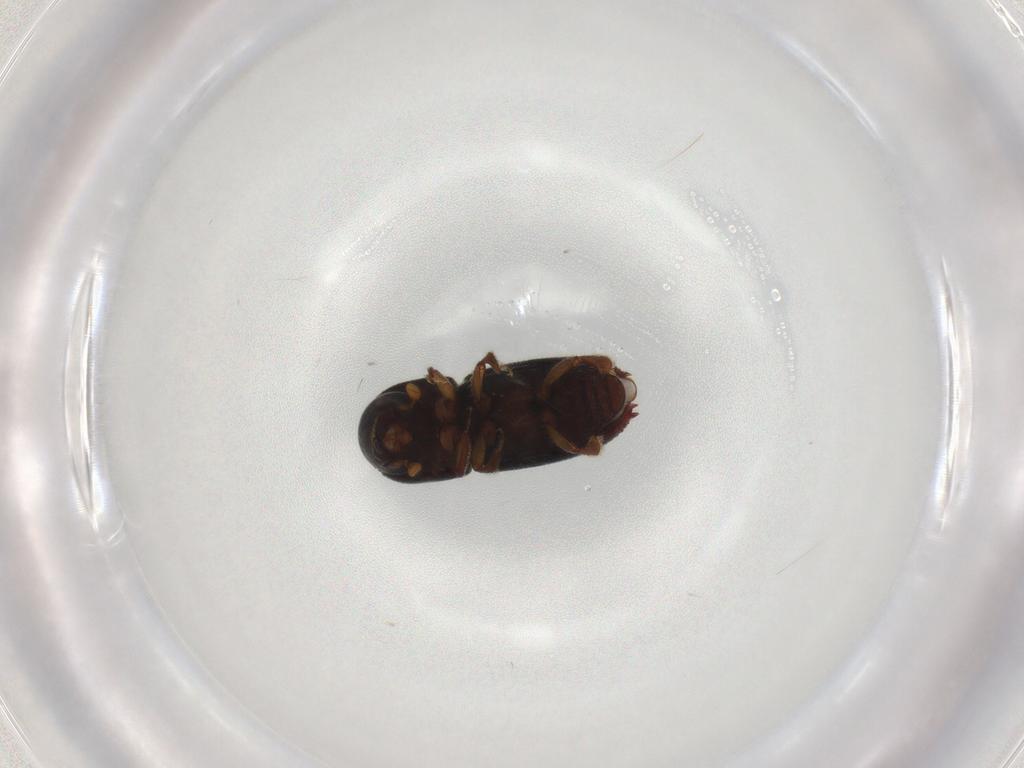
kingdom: Animalia
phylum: Arthropoda
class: Insecta
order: Coleoptera
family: Curculionidae
